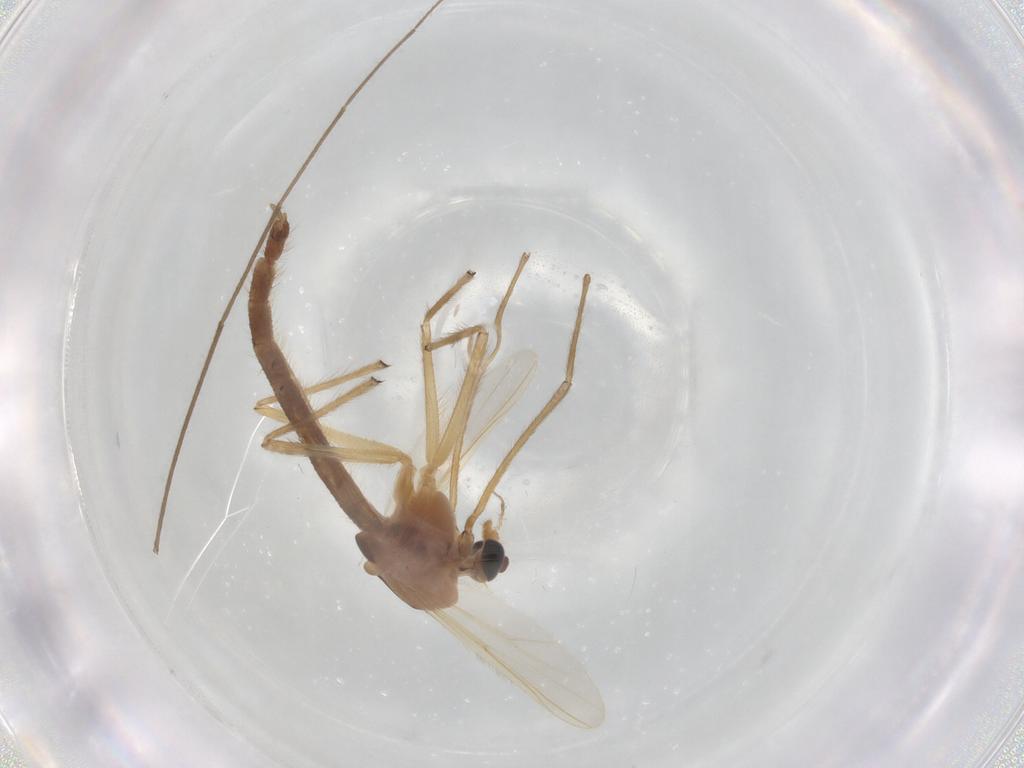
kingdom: Animalia
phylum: Arthropoda
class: Insecta
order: Diptera
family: Chironomidae
